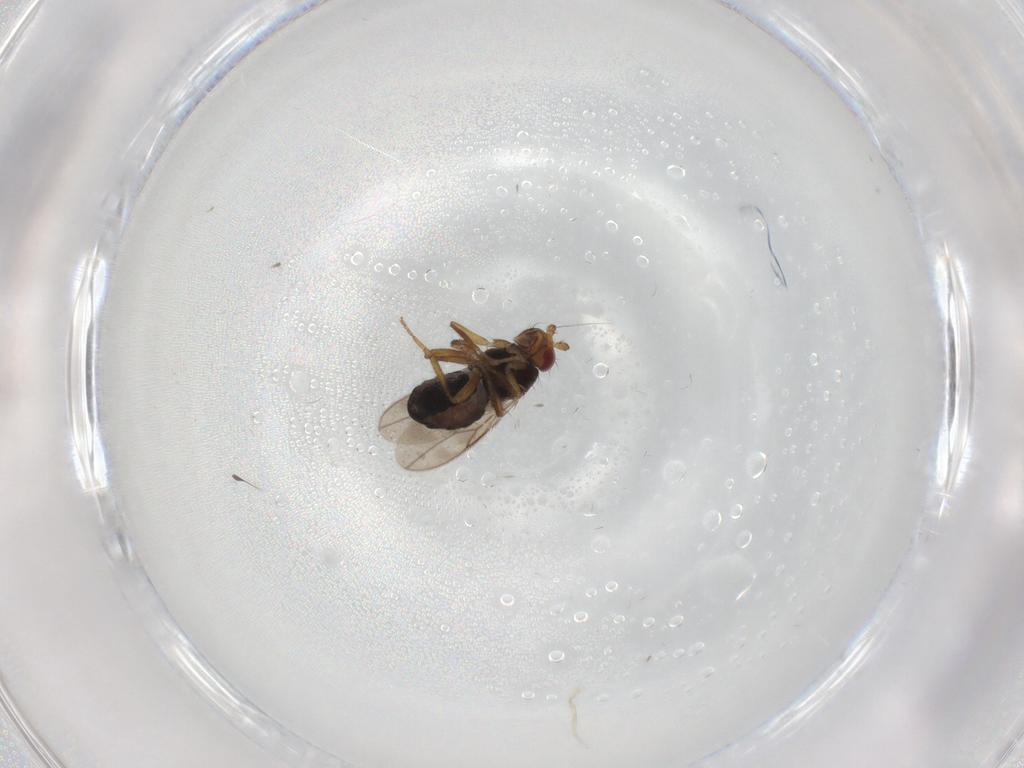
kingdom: Animalia
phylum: Arthropoda
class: Insecta
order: Diptera
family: Sphaeroceridae
